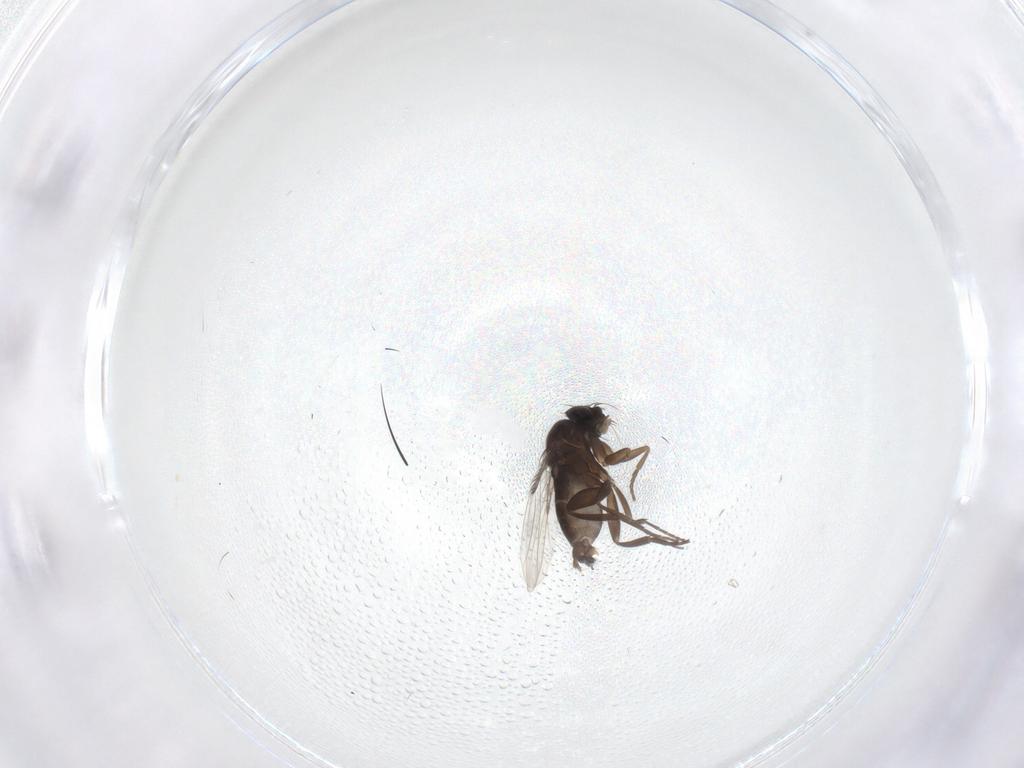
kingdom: Animalia
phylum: Arthropoda
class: Insecta
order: Diptera
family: Phoridae
